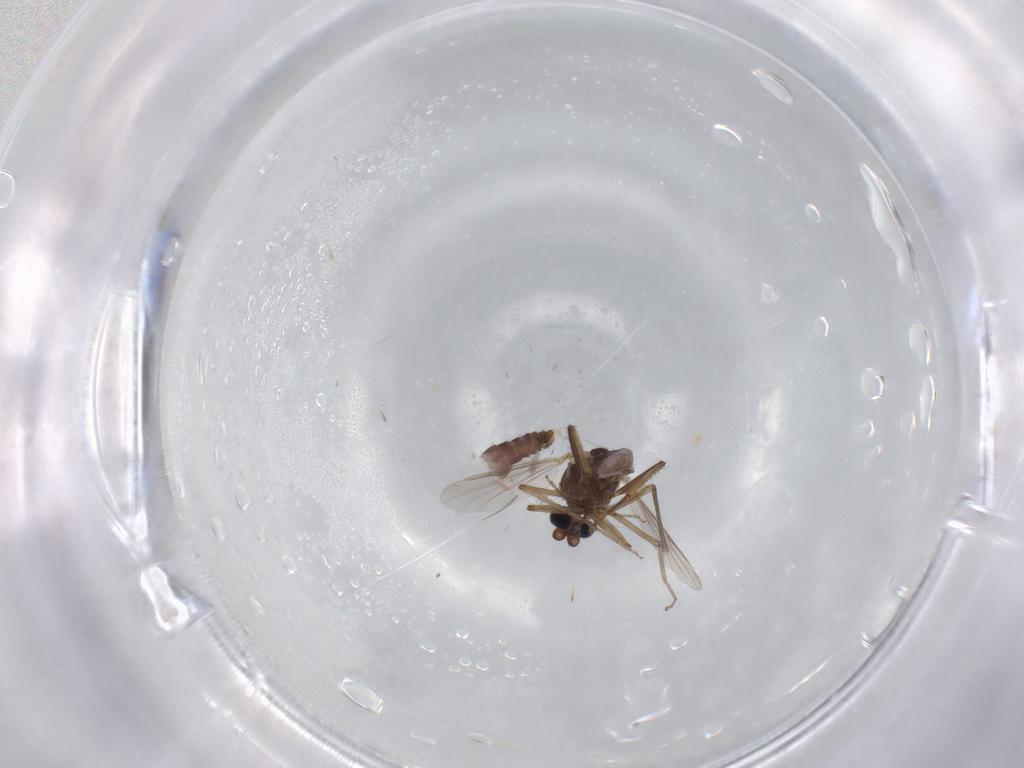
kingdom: Animalia
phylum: Arthropoda
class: Insecta
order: Diptera
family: Ceratopogonidae
